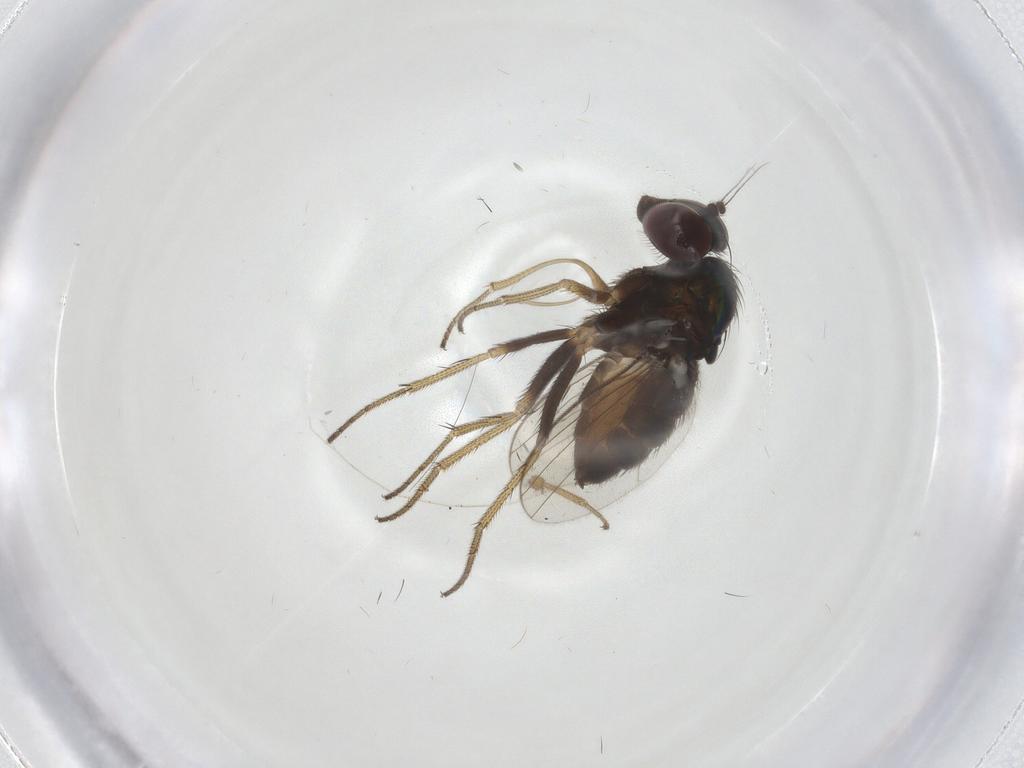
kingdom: Animalia
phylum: Arthropoda
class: Insecta
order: Diptera
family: Drosophilidae
